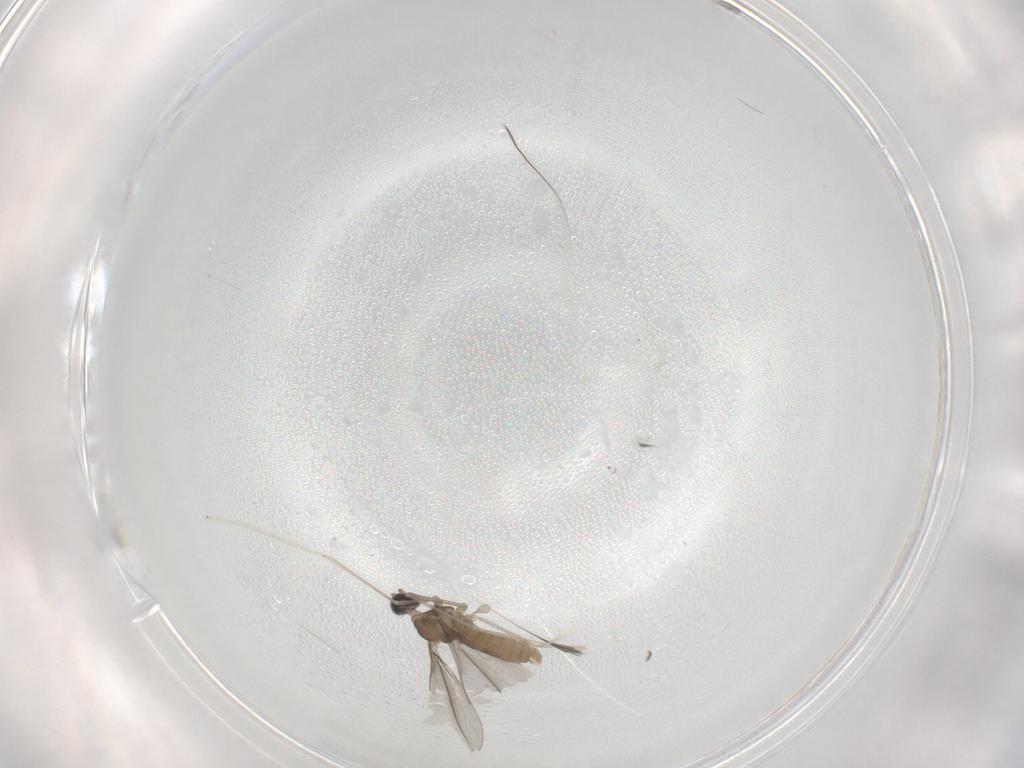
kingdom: Animalia
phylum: Arthropoda
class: Insecta
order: Diptera
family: Cecidomyiidae
